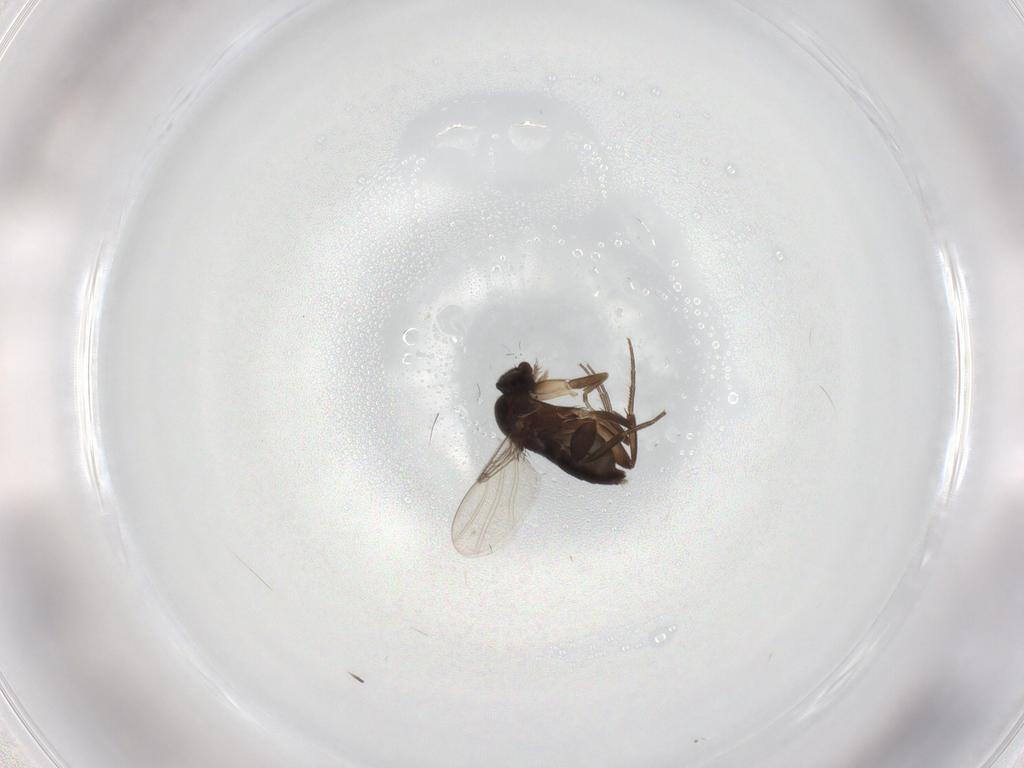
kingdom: Animalia
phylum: Arthropoda
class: Insecta
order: Diptera
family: Phoridae
